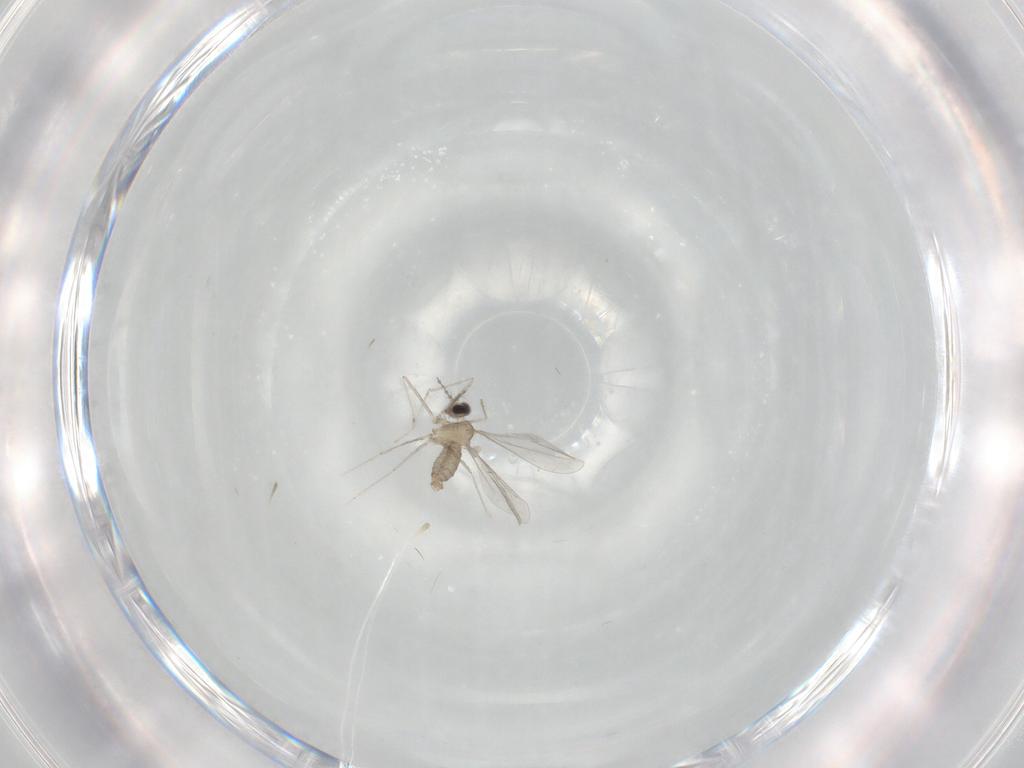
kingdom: Animalia
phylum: Arthropoda
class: Insecta
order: Diptera
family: Cecidomyiidae
